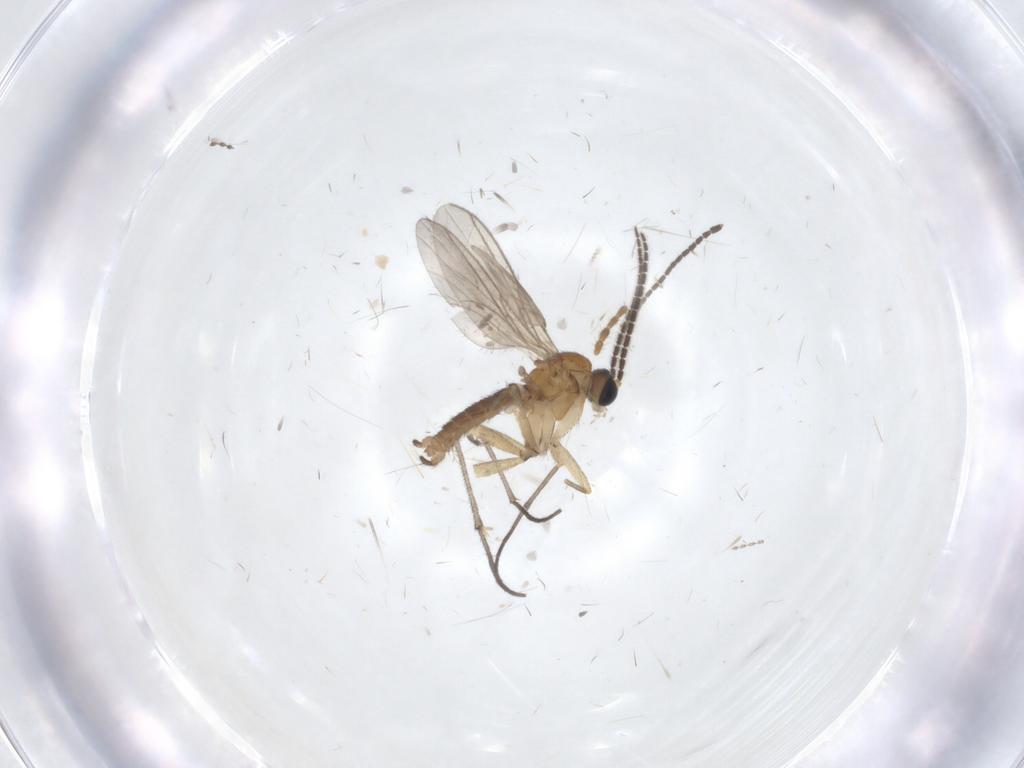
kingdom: Animalia
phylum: Arthropoda
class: Insecta
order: Diptera
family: Sciaridae
